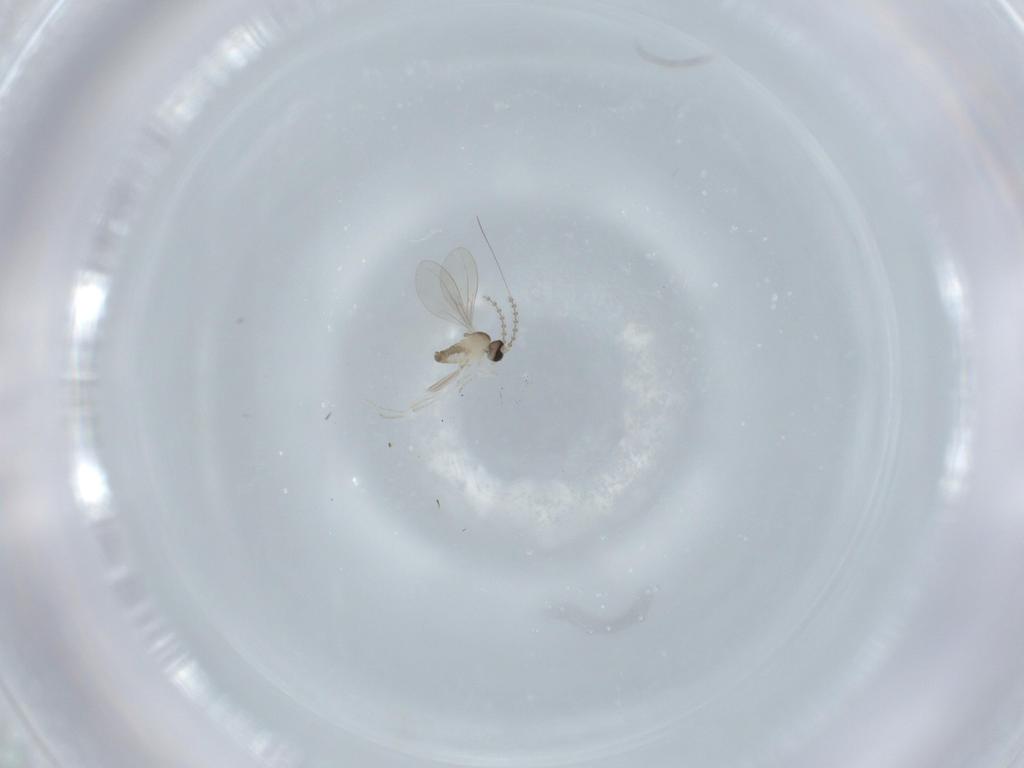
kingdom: Animalia
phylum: Arthropoda
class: Insecta
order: Diptera
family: Cecidomyiidae
